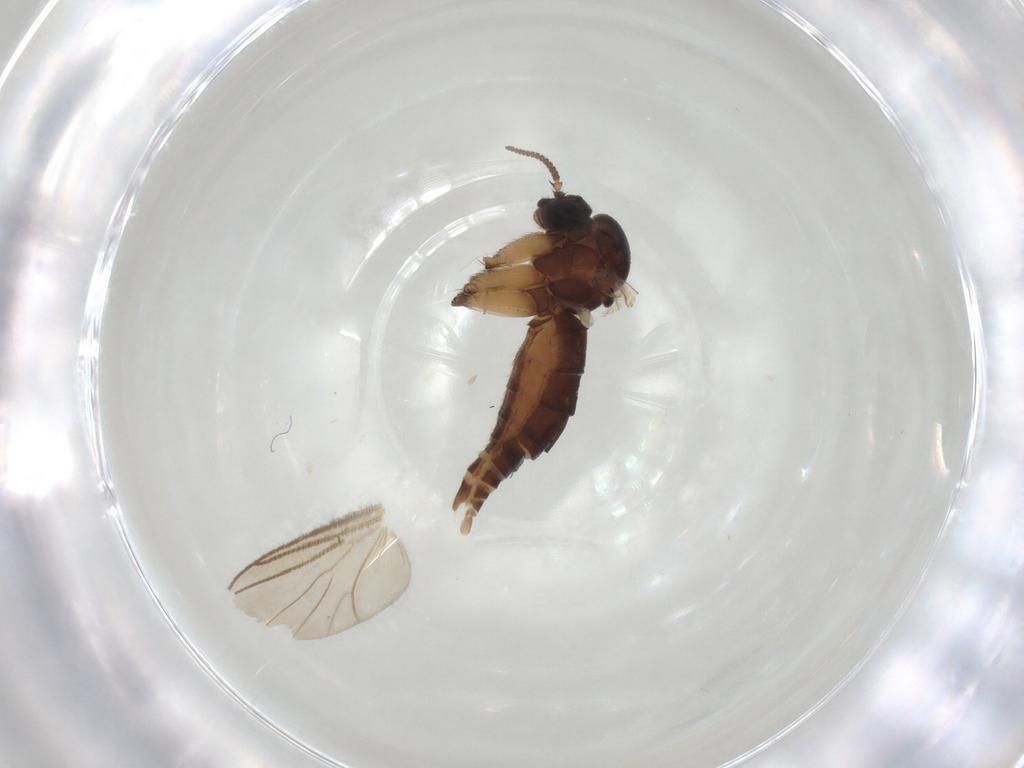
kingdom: Animalia
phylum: Arthropoda
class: Insecta
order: Diptera
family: Mycetophilidae
